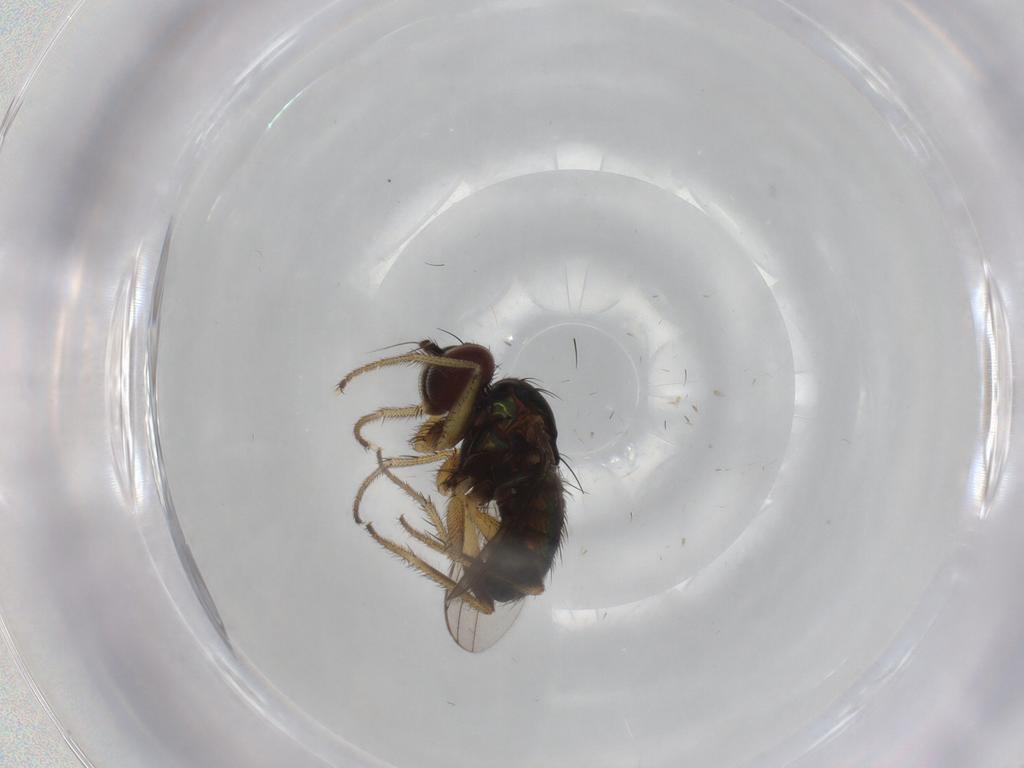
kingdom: Animalia
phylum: Arthropoda
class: Insecta
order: Diptera
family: Dolichopodidae
